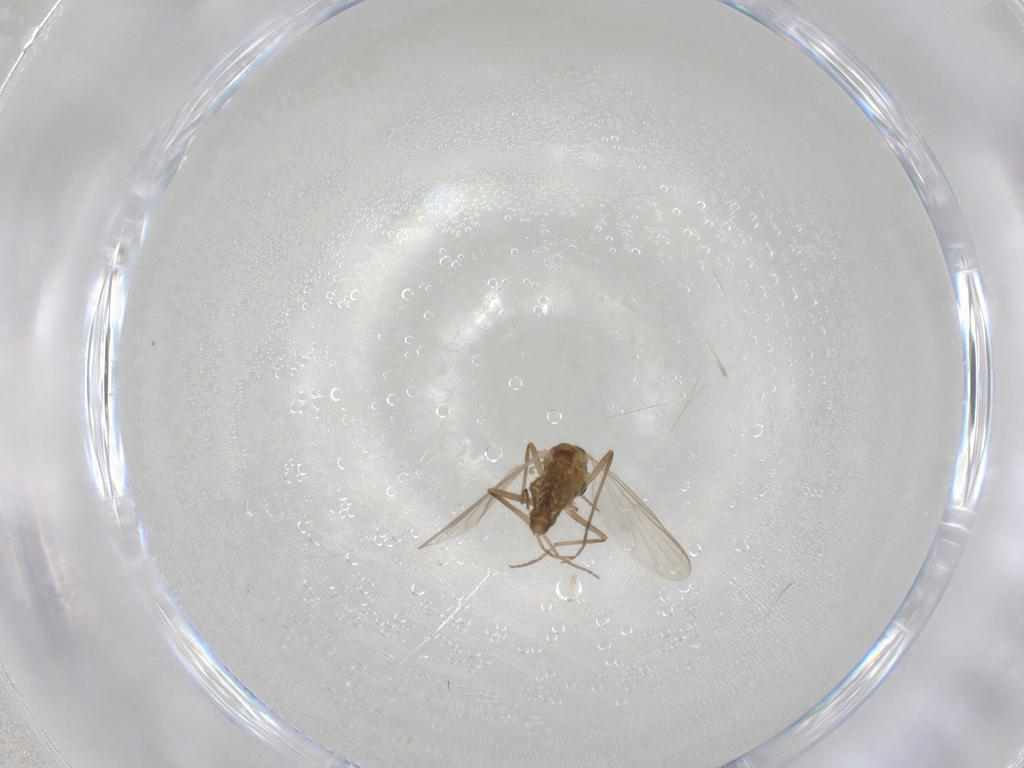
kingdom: Animalia
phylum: Arthropoda
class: Insecta
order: Diptera
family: Chironomidae
